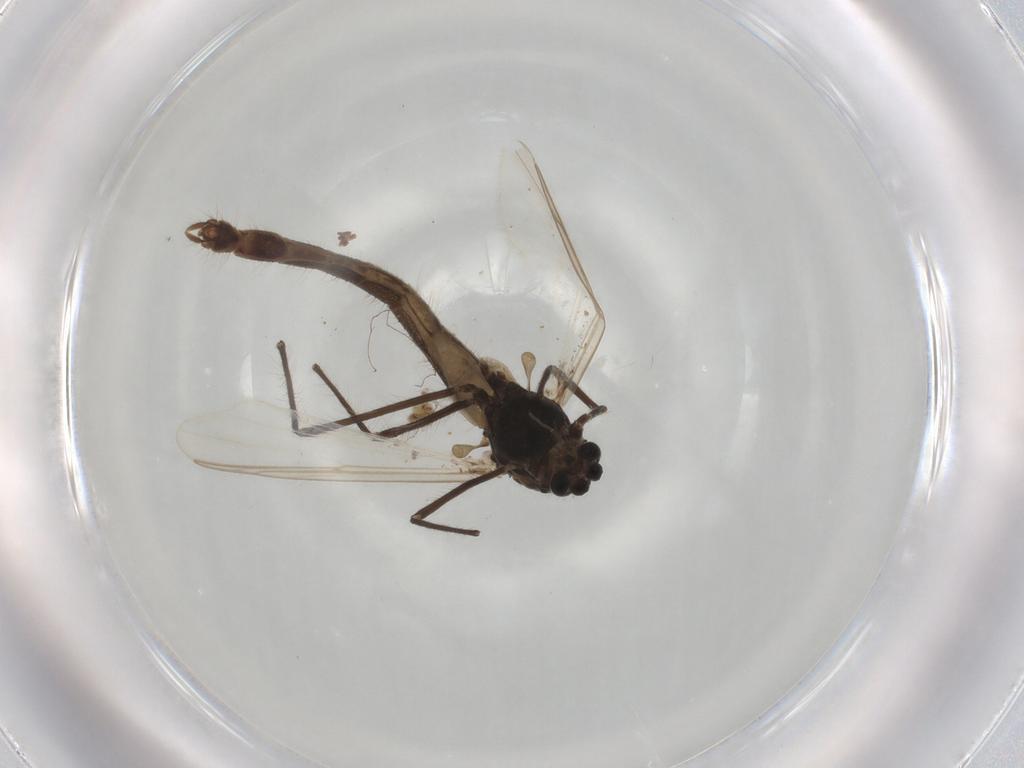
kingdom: Animalia
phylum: Arthropoda
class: Insecta
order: Diptera
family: Chironomidae
